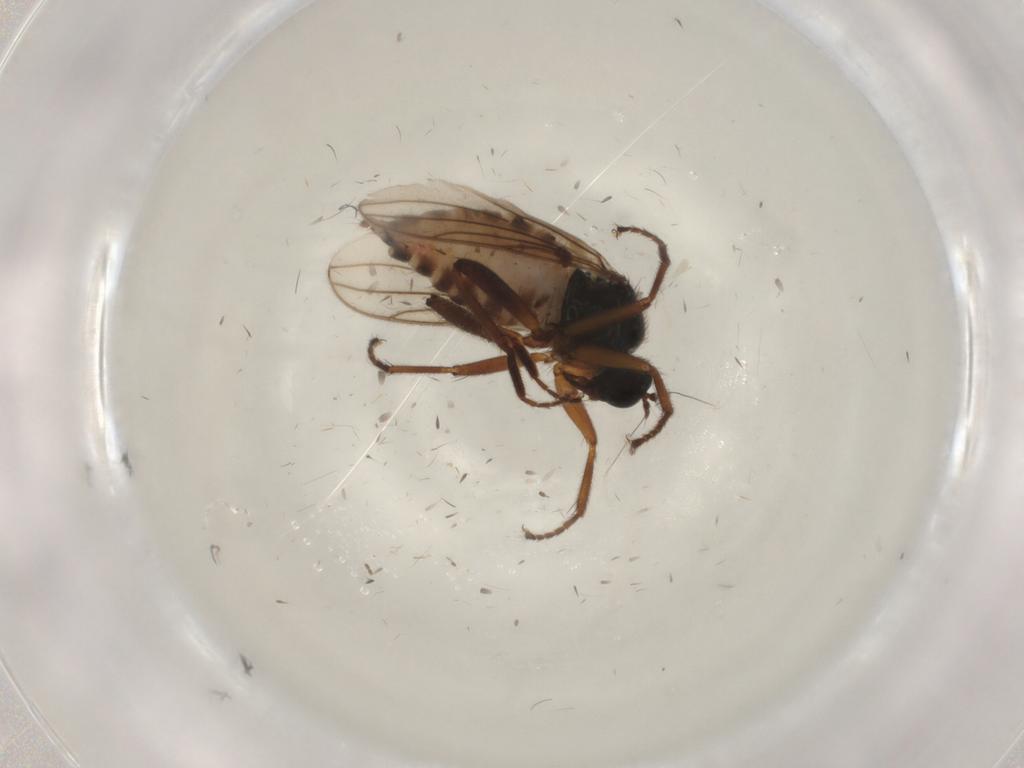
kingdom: Animalia
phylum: Arthropoda
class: Insecta
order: Diptera
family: Hybotidae
